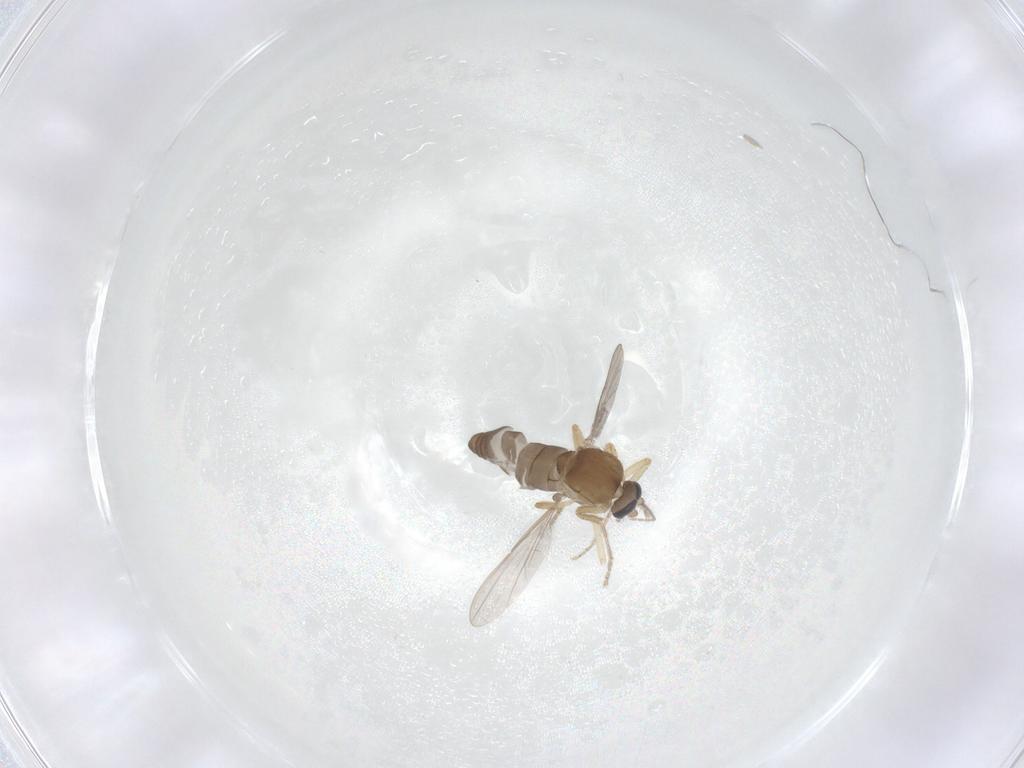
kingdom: Animalia
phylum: Arthropoda
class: Insecta
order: Diptera
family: Ceratopogonidae
